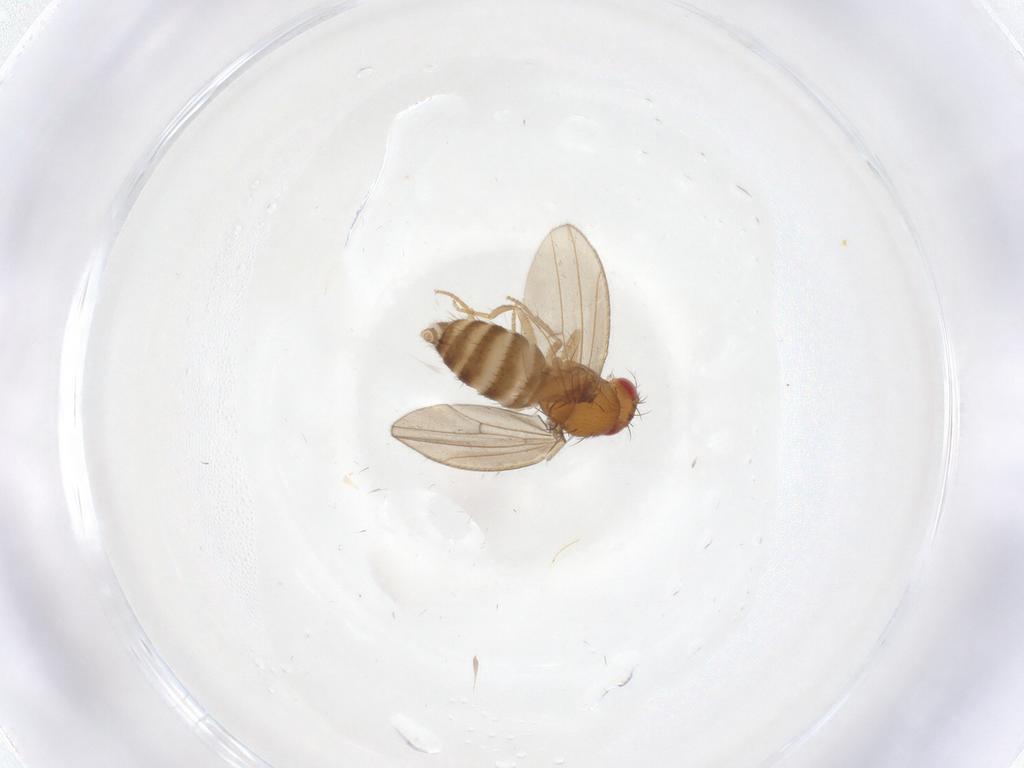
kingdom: Animalia
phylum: Arthropoda
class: Insecta
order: Diptera
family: Drosophilidae
